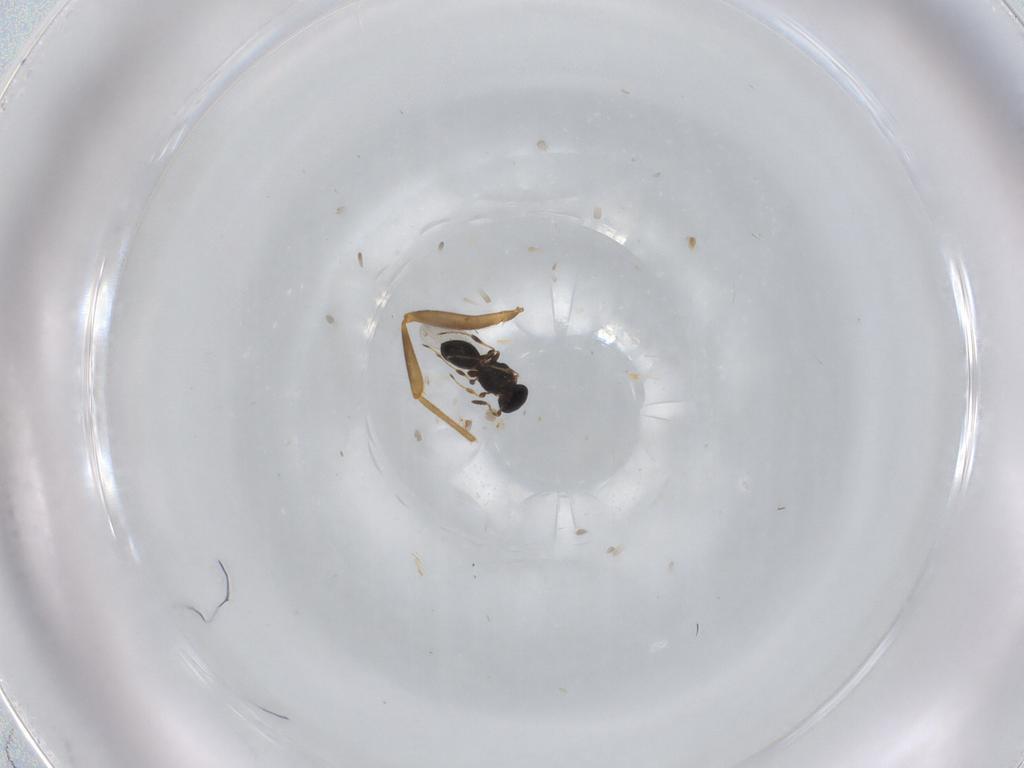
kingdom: Animalia
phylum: Arthropoda
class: Insecta
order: Hymenoptera
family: Platygastridae
